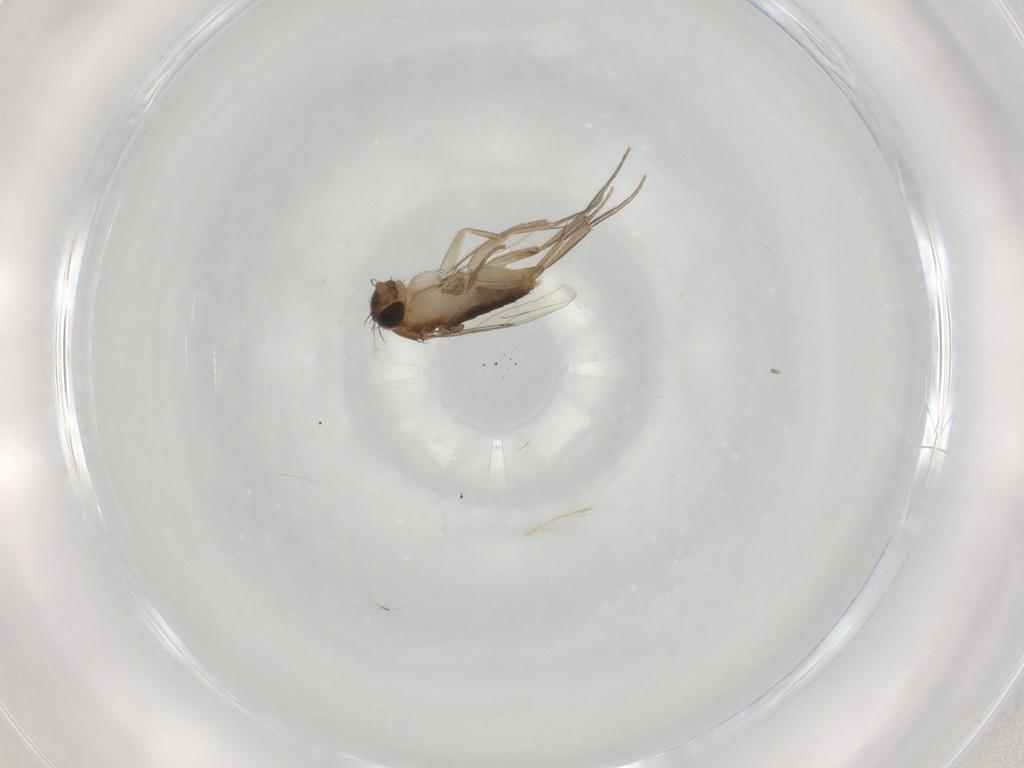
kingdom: Animalia
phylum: Arthropoda
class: Insecta
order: Diptera
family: Phoridae
